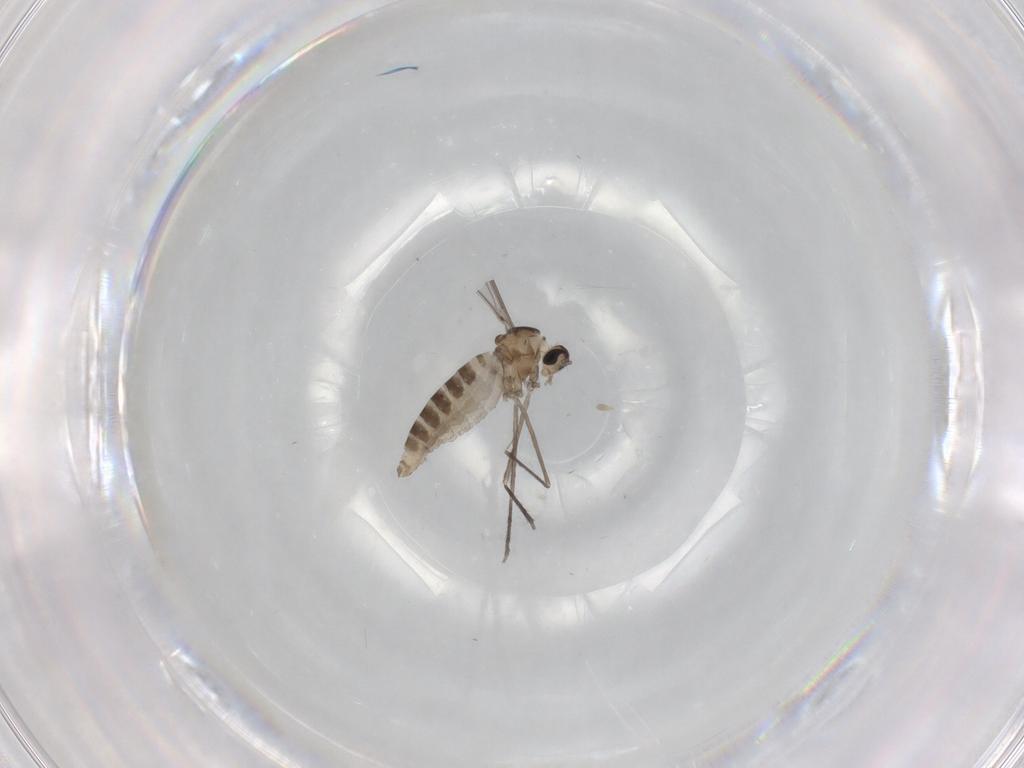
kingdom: Animalia
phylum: Arthropoda
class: Insecta
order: Diptera
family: Cecidomyiidae
